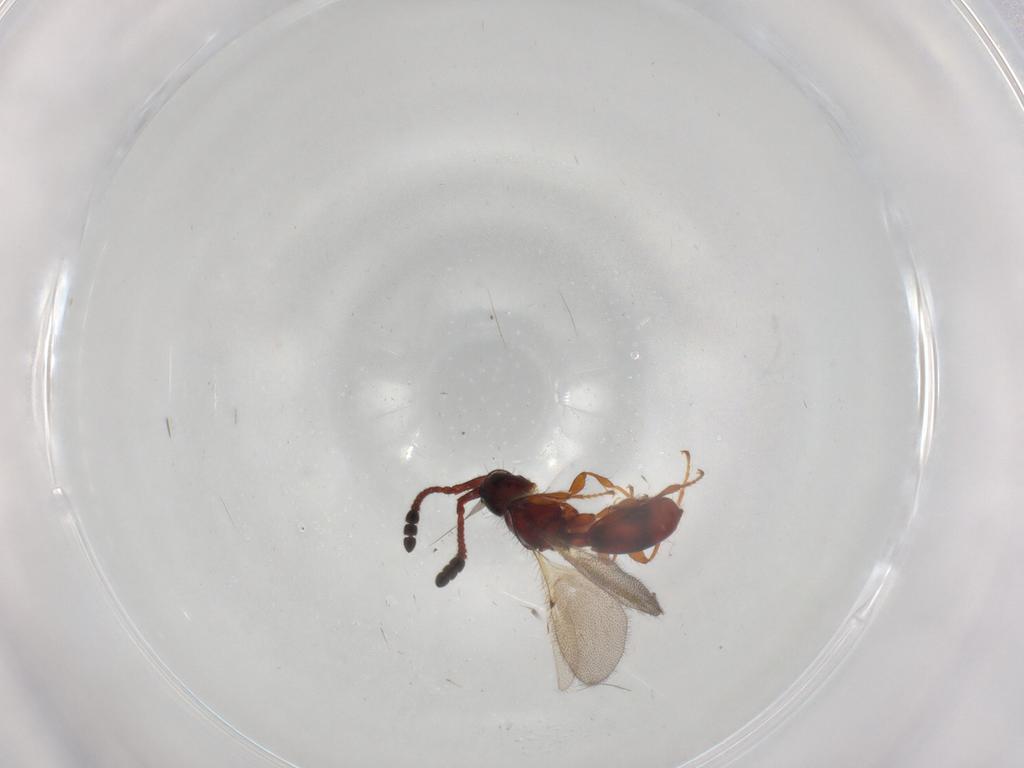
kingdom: Animalia
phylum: Arthropoda
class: Insecta
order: Hymenoptera
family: Diapriidae
